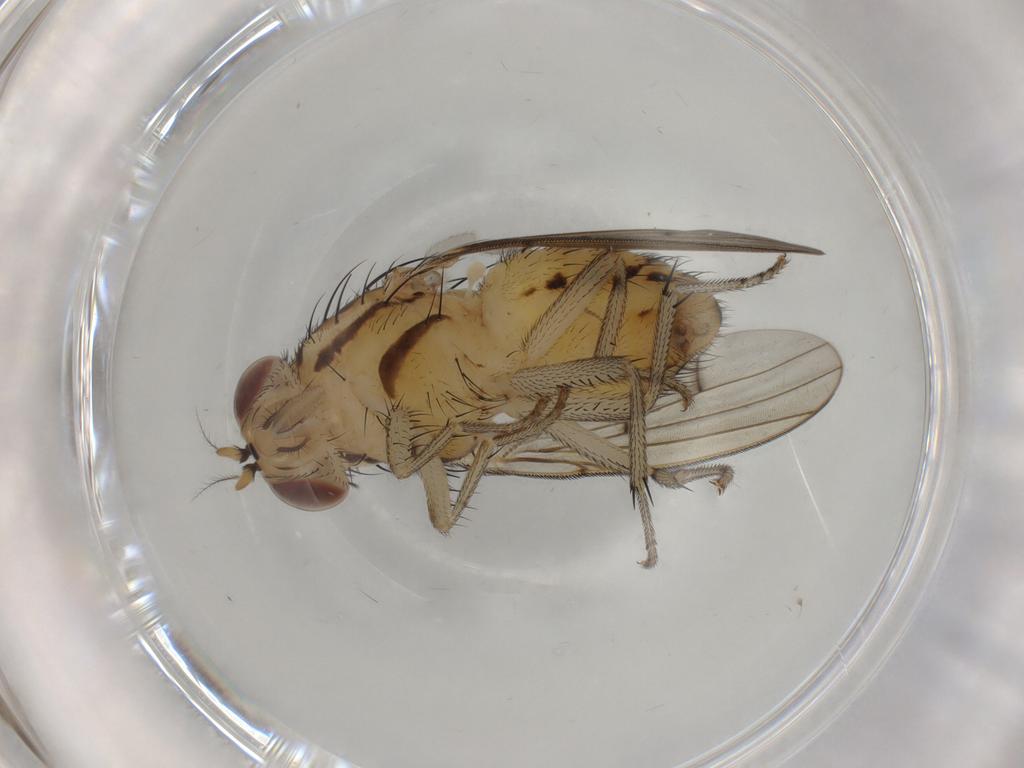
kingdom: Animalia
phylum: Arthropoda
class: Insecta
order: Diptera
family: Lauxaniidae
